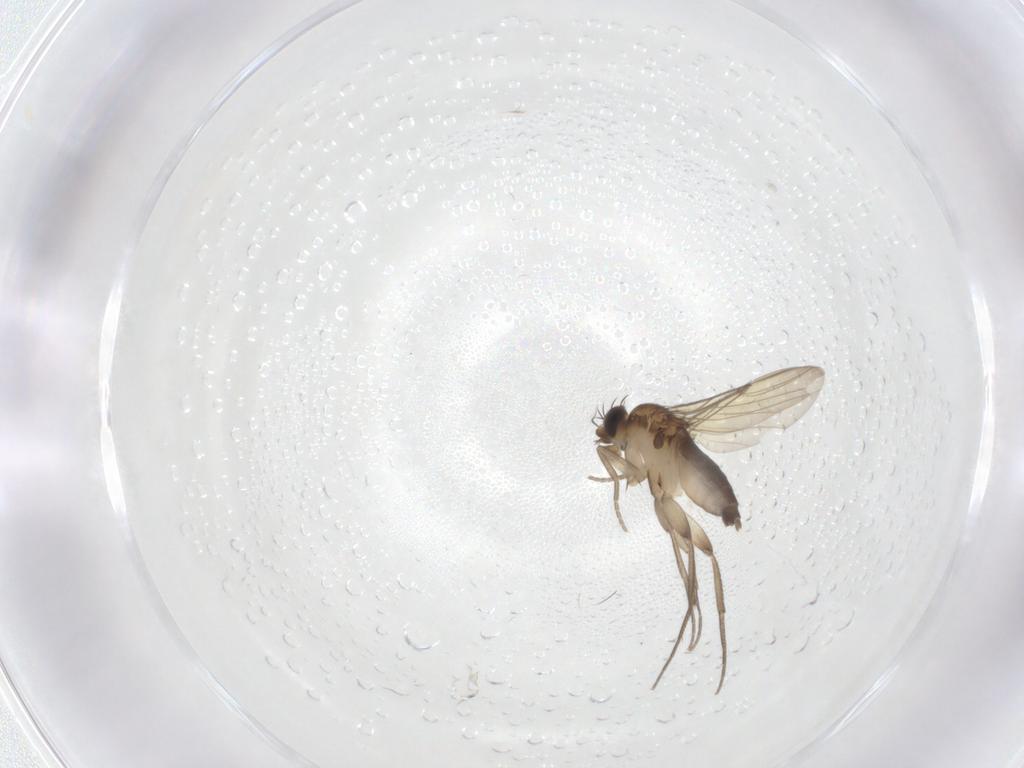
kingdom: Animalia
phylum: Arthropoda
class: Insecta
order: Diptera
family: Phoridae
